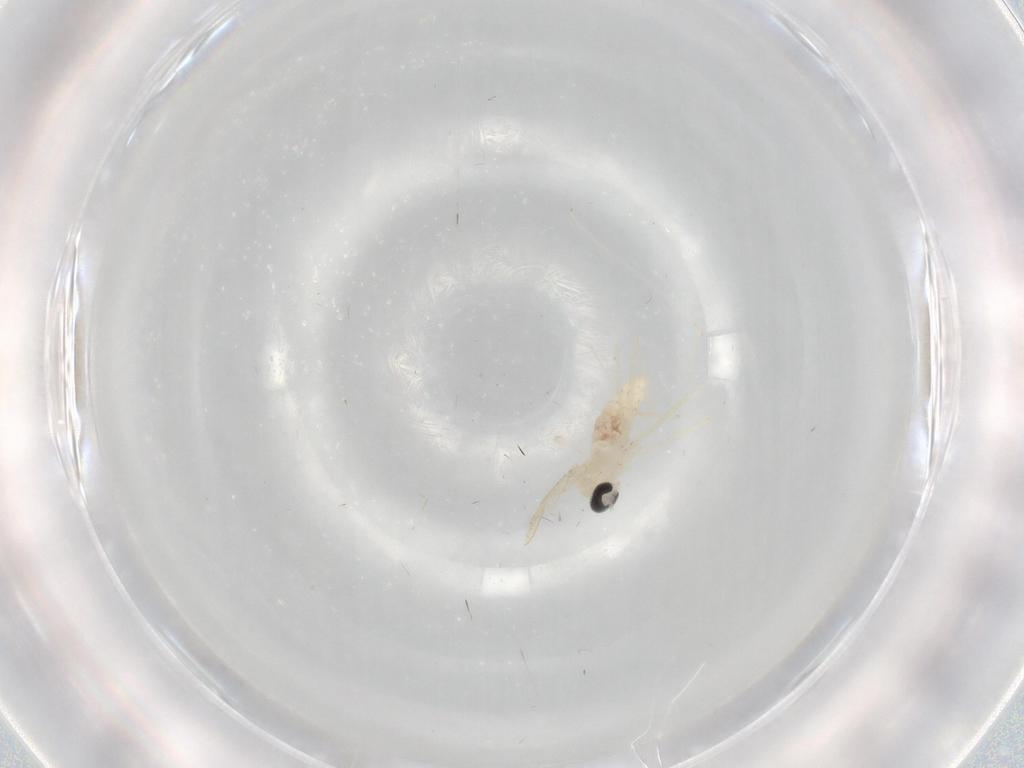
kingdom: Animalia
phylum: Arthropoda
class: Insecta
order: Diptera
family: Cecidomyiidae
